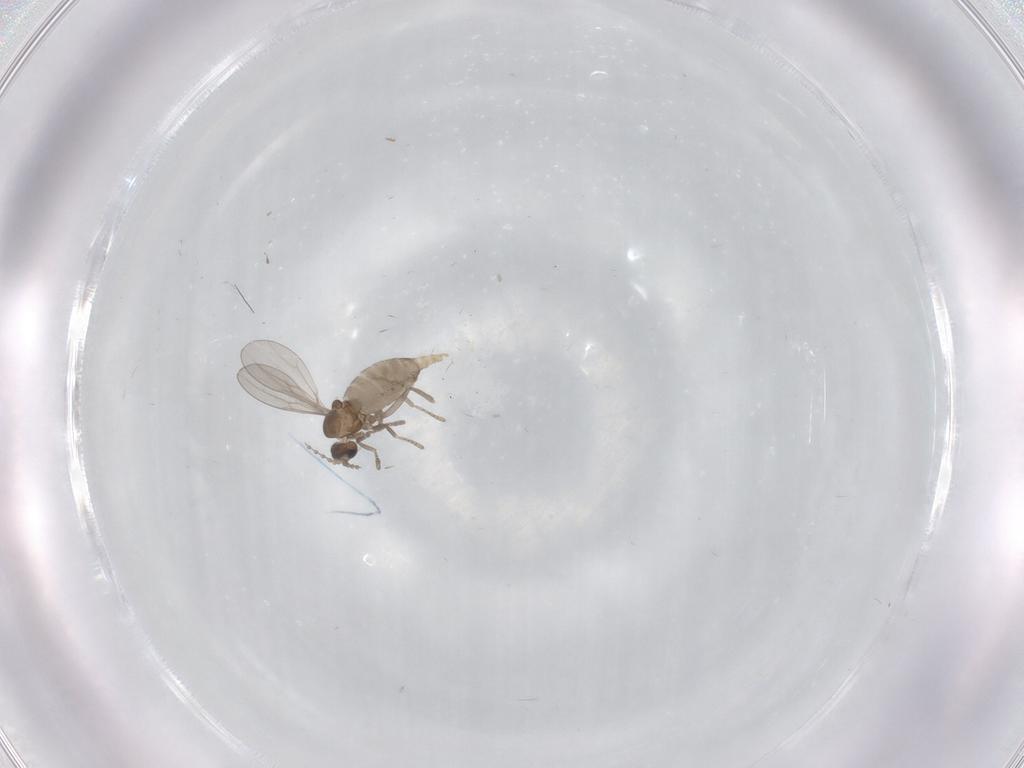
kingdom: Animalia
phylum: Arthropoda
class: Insecta
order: Diptera
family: Cecidomyiidae
